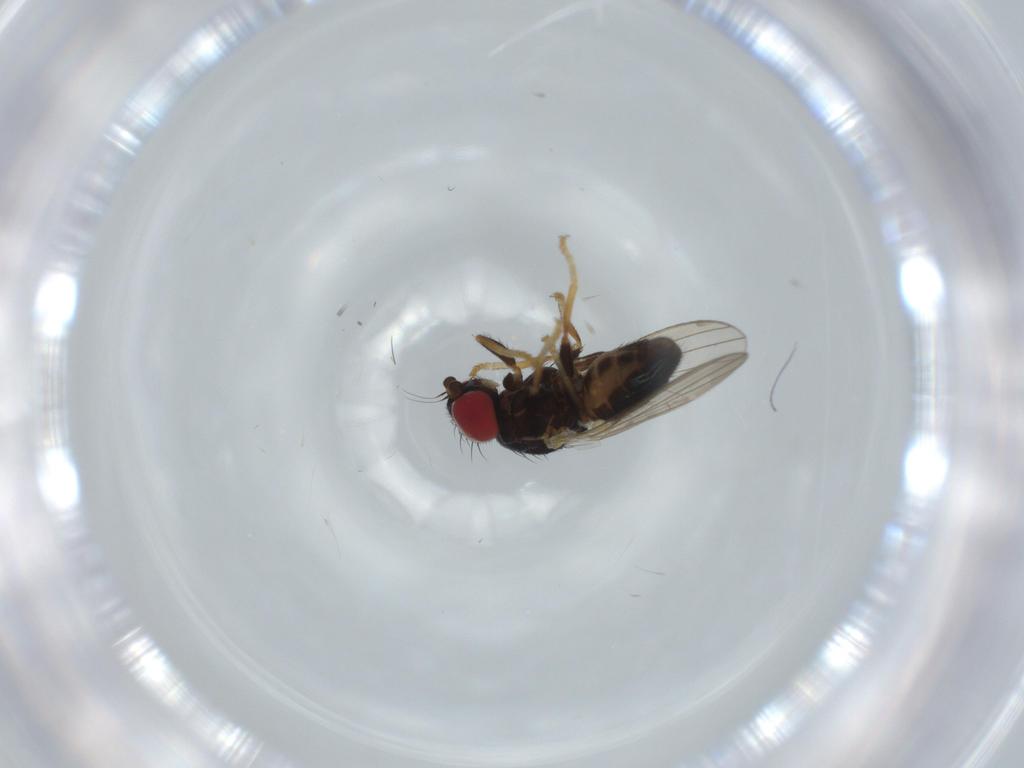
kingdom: Animalia
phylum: Arthropoda
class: Insecta
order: Diptera
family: Chamaemyiidae
